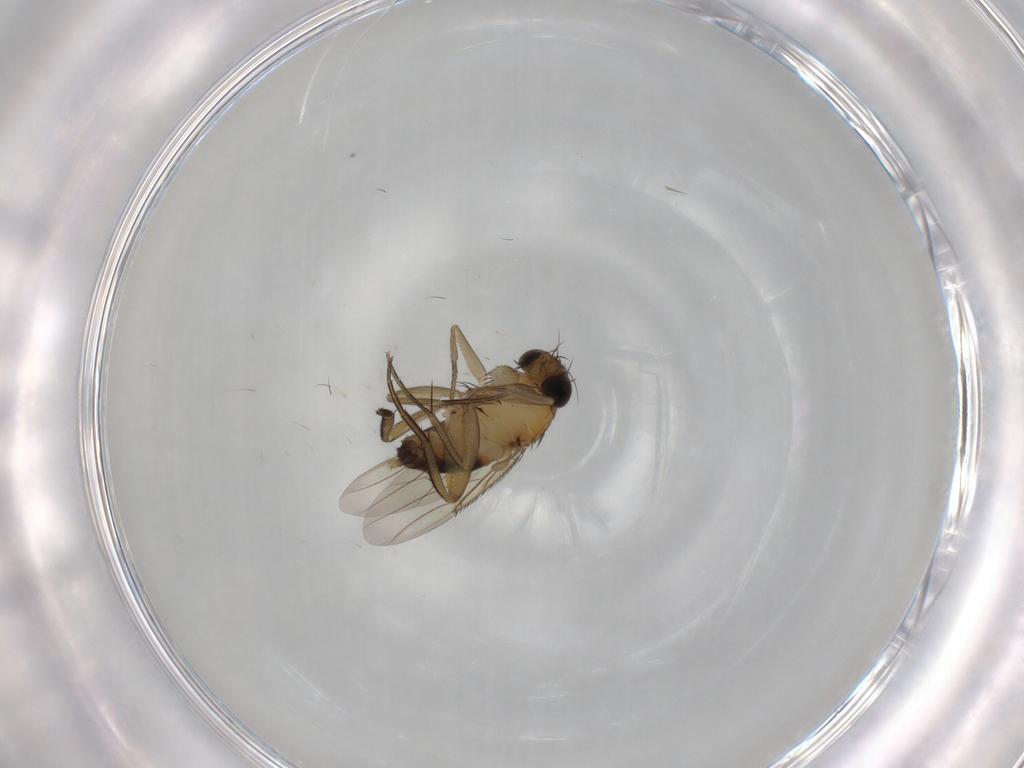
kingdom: Animalia
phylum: Arthropoda
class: Insecta
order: Diptera
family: Phoridae
